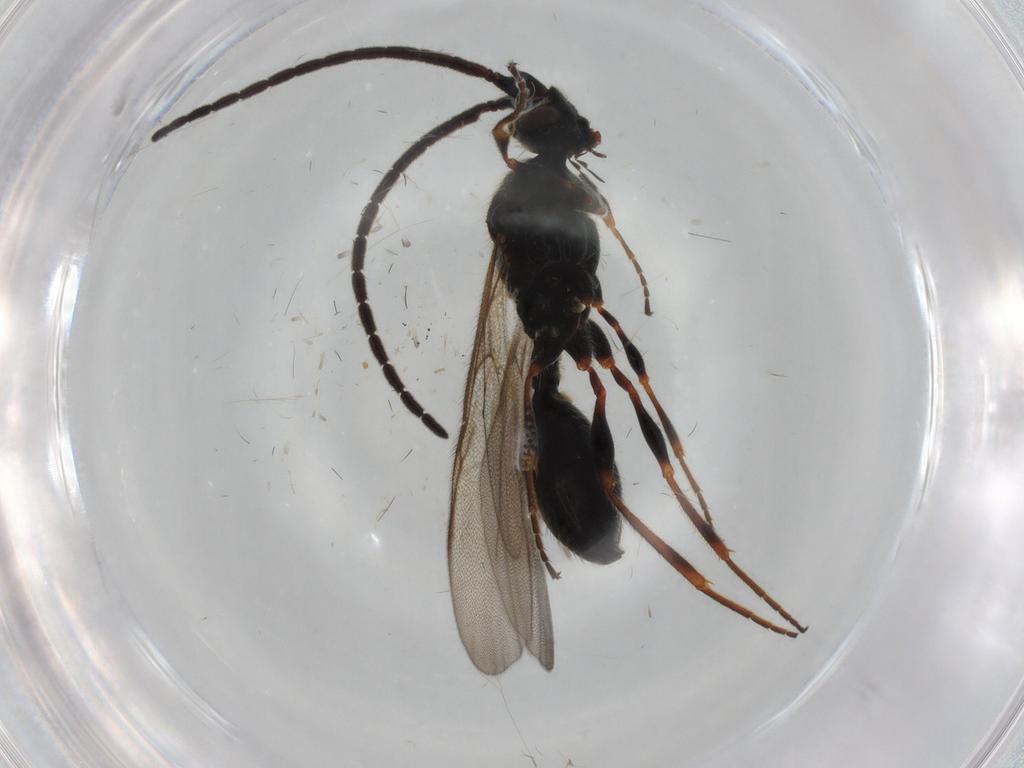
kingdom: Animalia
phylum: Arthropoda
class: Insecta
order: Hymenoptera
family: Diapriidae
